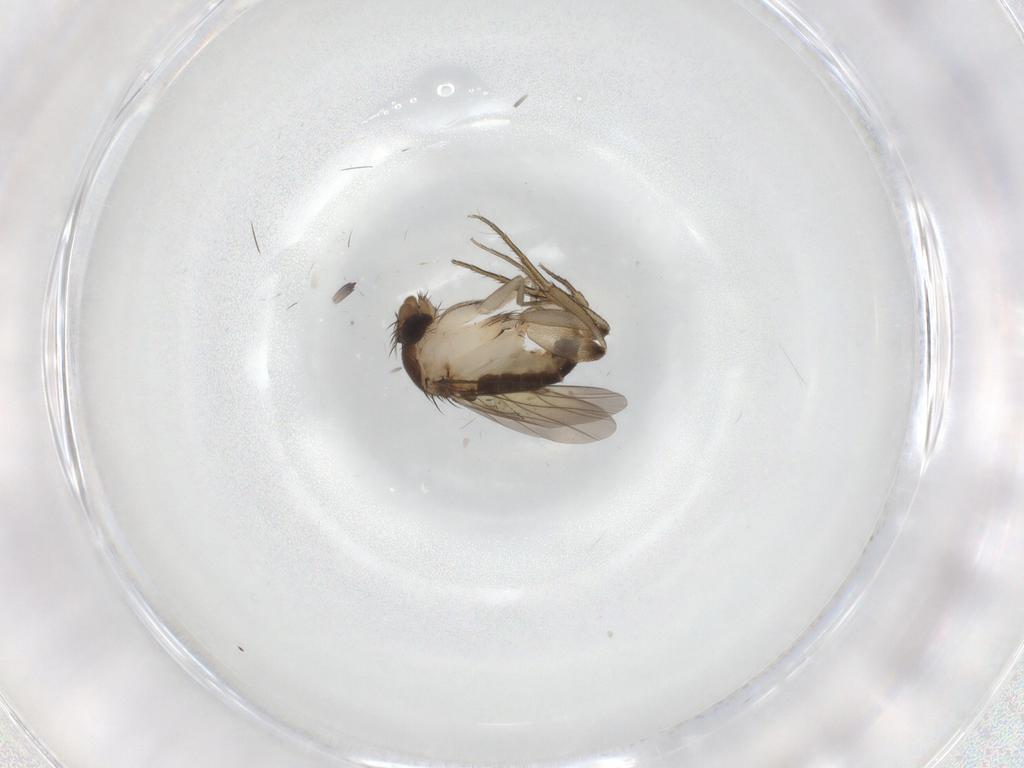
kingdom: Animalia
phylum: Arthropoda
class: Insecta
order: Diptera
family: Phoridae
